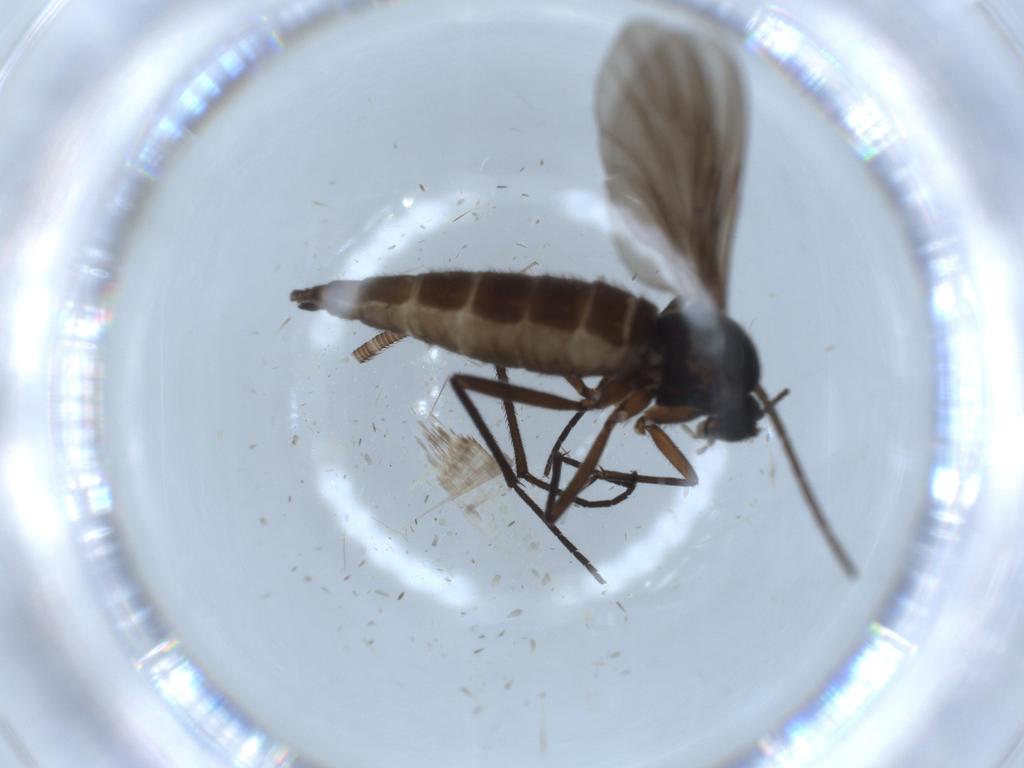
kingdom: Animalia
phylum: Arthropoda
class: Insecta
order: Diptera
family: Sciaridae
